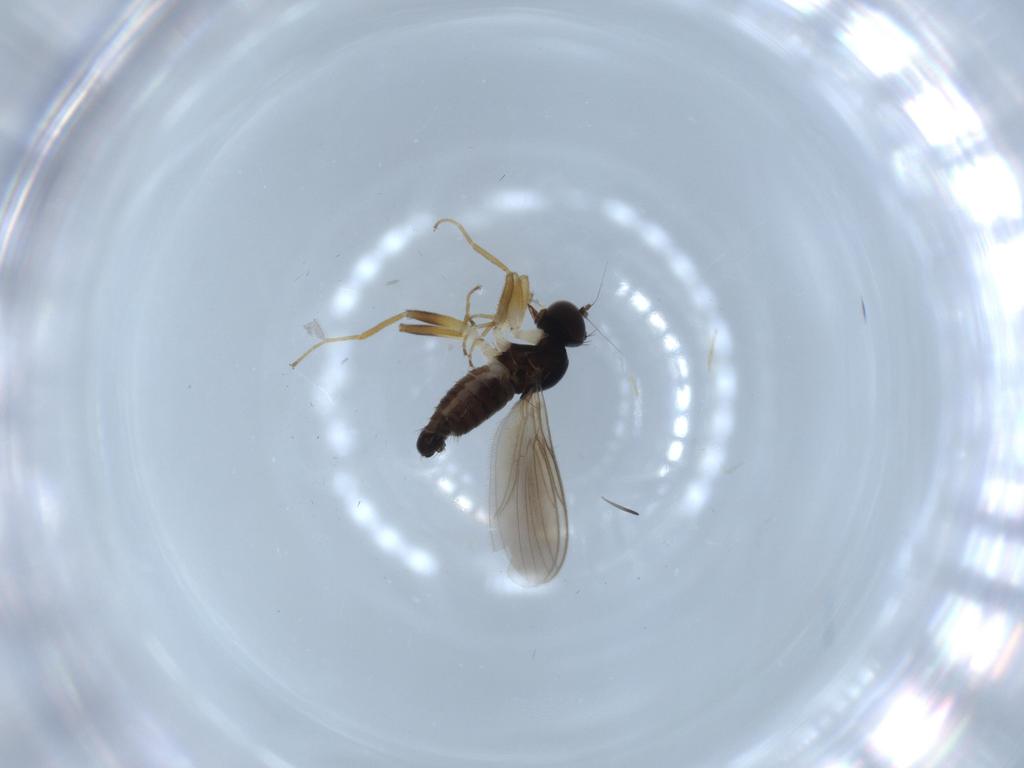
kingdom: Animalia
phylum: Arthropoda
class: Insecta
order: Diptera
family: Hybotidae
